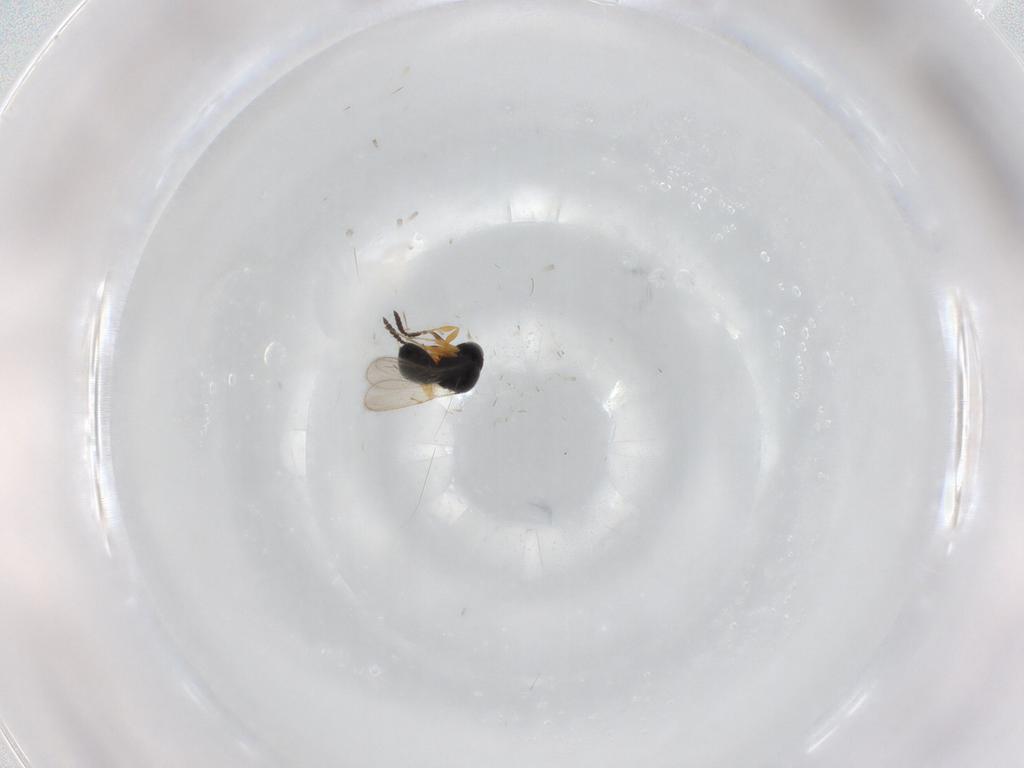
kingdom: Animalia
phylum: Arthropoda
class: Insecta
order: Hymenoptera
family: Scelionidae
